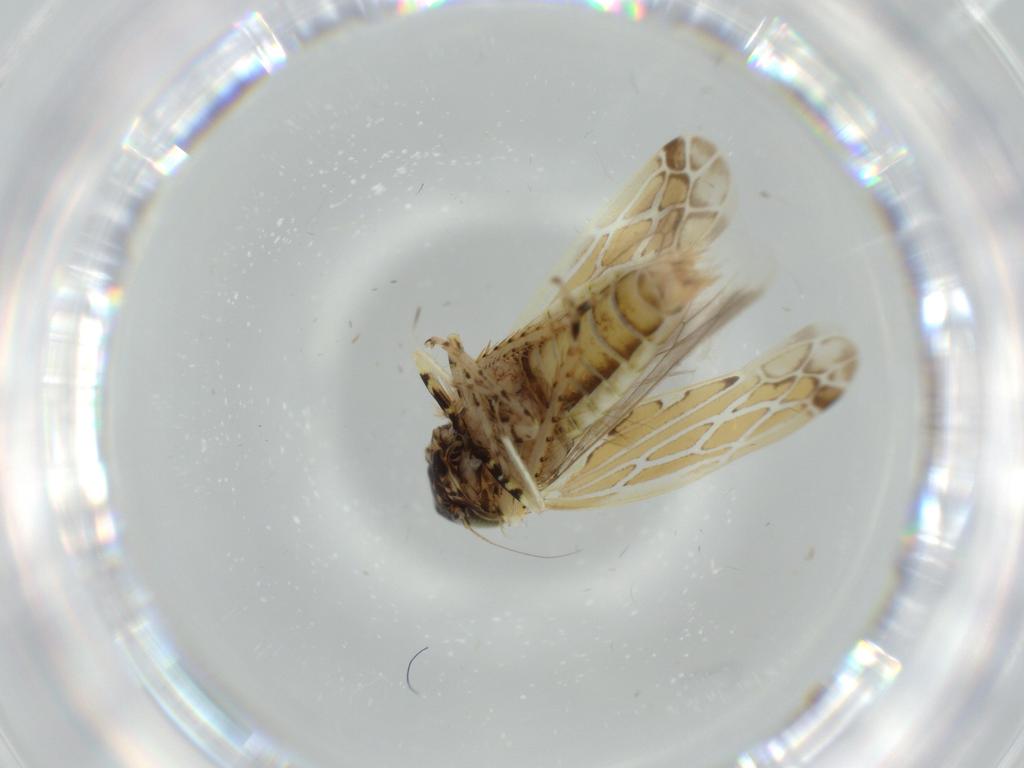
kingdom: Animalia
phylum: Arthropoda
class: Insecta
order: Hemiptera
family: Cicadellidae
